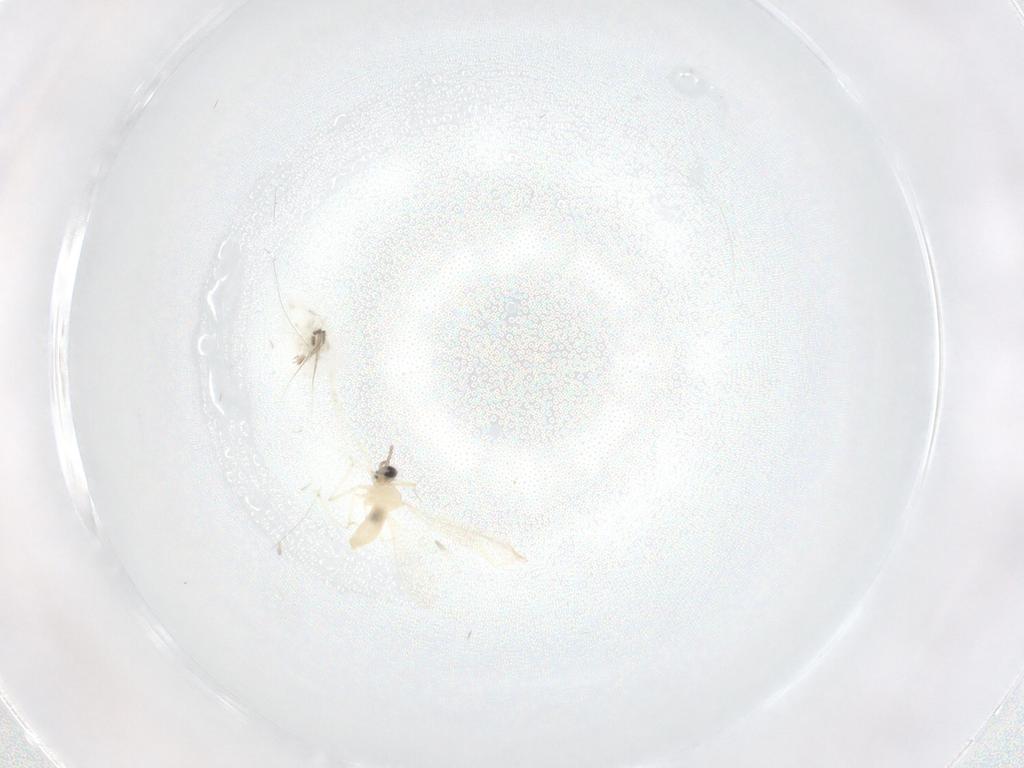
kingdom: Animalia
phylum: Arthropoda
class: Insecta
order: Diptera
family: Cecidomyiidae
